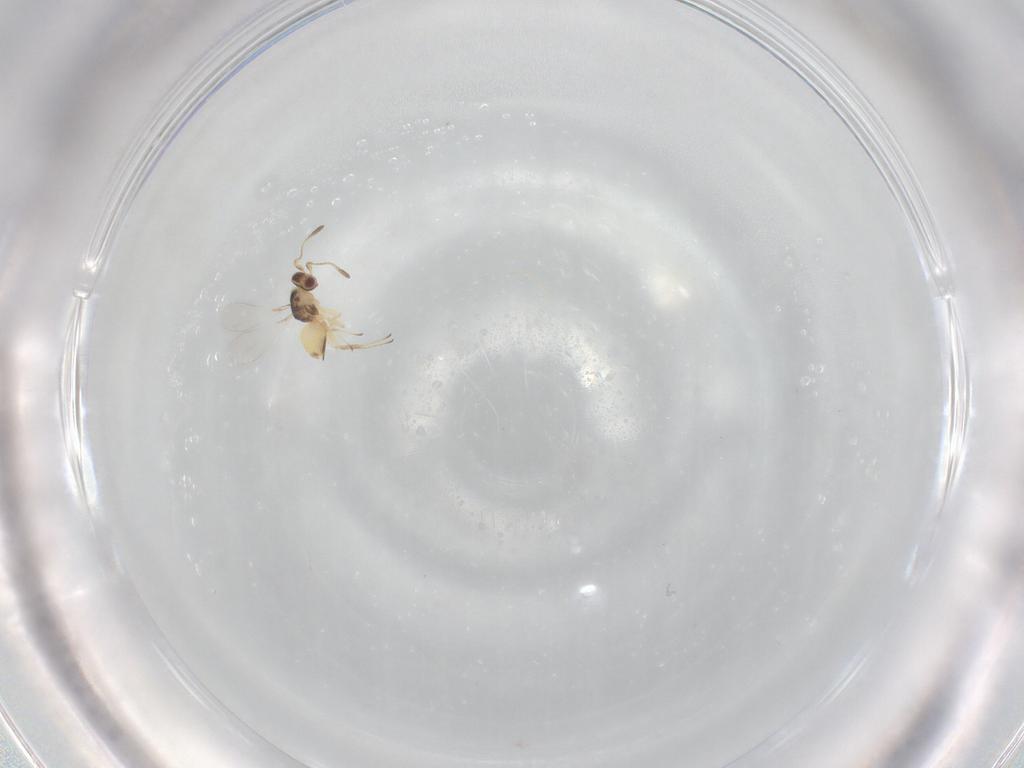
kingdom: Animalia
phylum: Arthropoda
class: Insecta
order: Hymenoptera
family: Mymaridae
